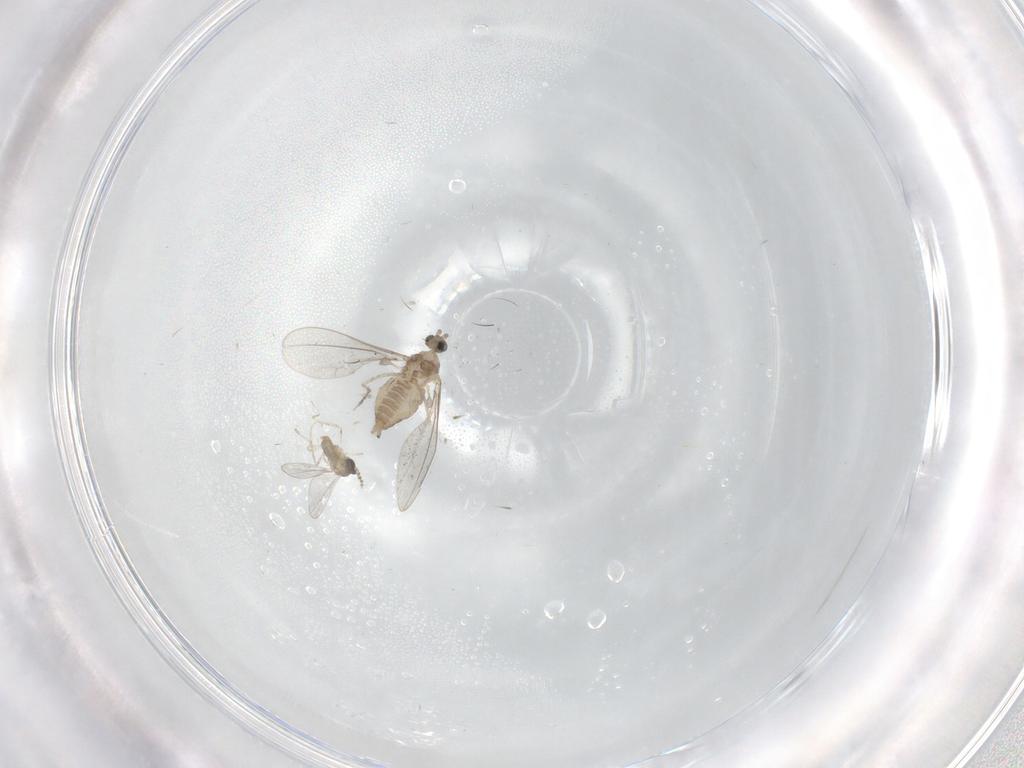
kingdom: Animalia
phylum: Arthropoda
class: Insecta
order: Diptera
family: Cecidomyiidae
